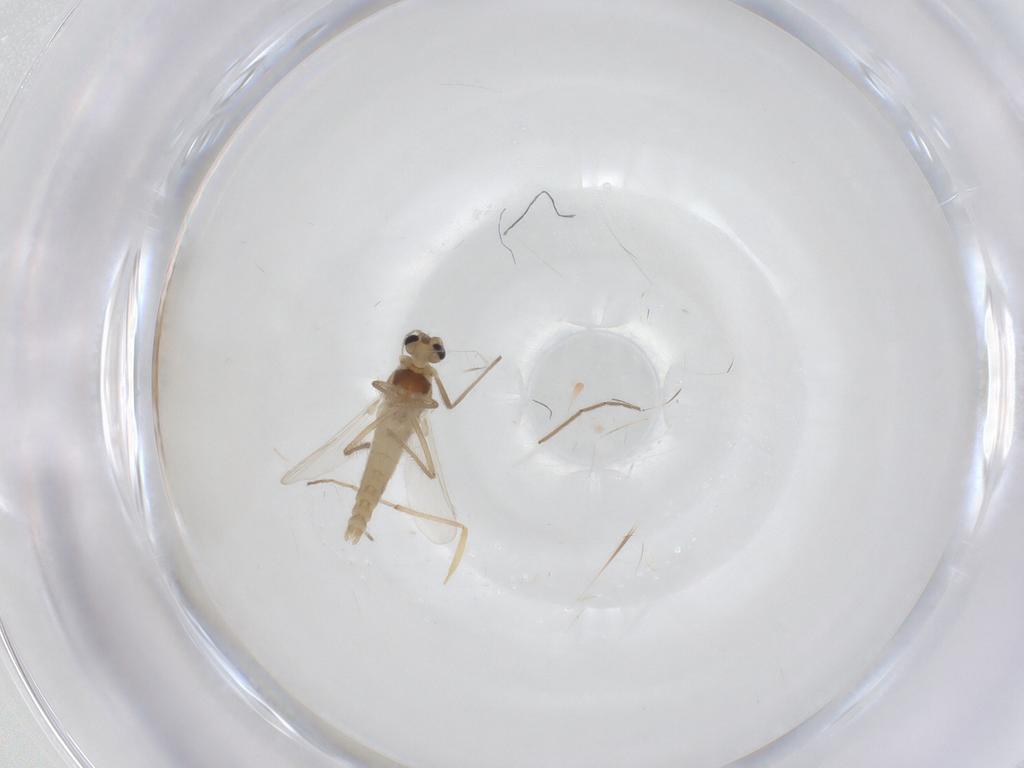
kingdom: Animalia
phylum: Arthropoda
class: Insecta
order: Diptera
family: Chironomidae
